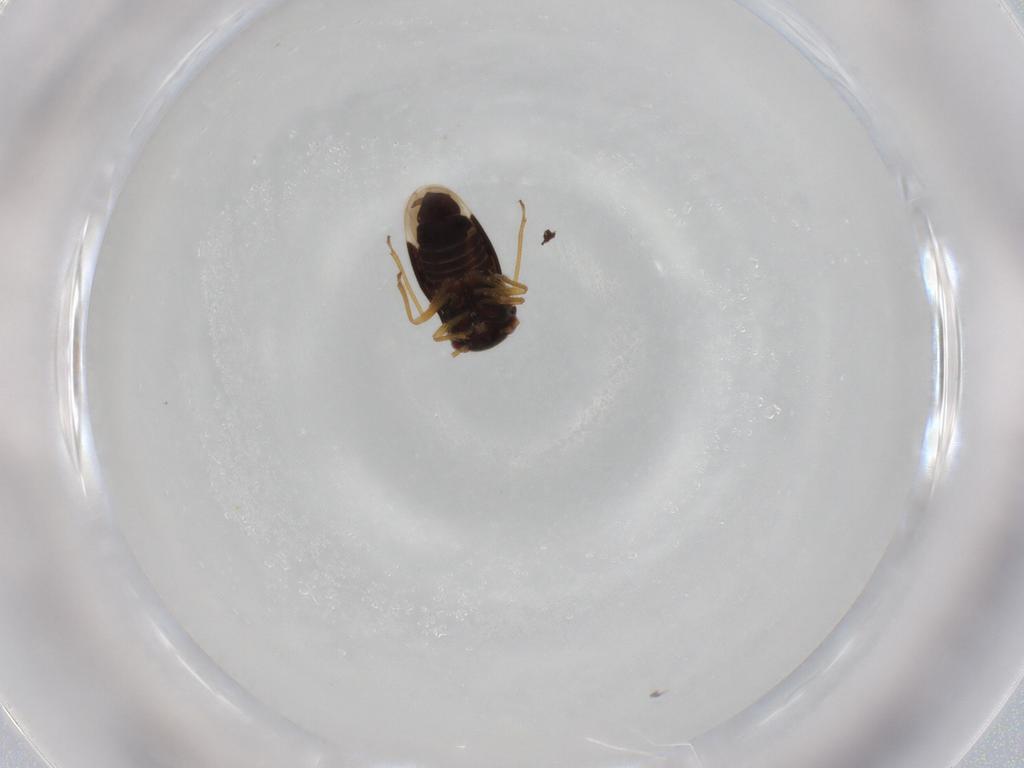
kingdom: Animalia
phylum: Arthropoda
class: Insecta
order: Hemiptera
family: Schizopteridae
